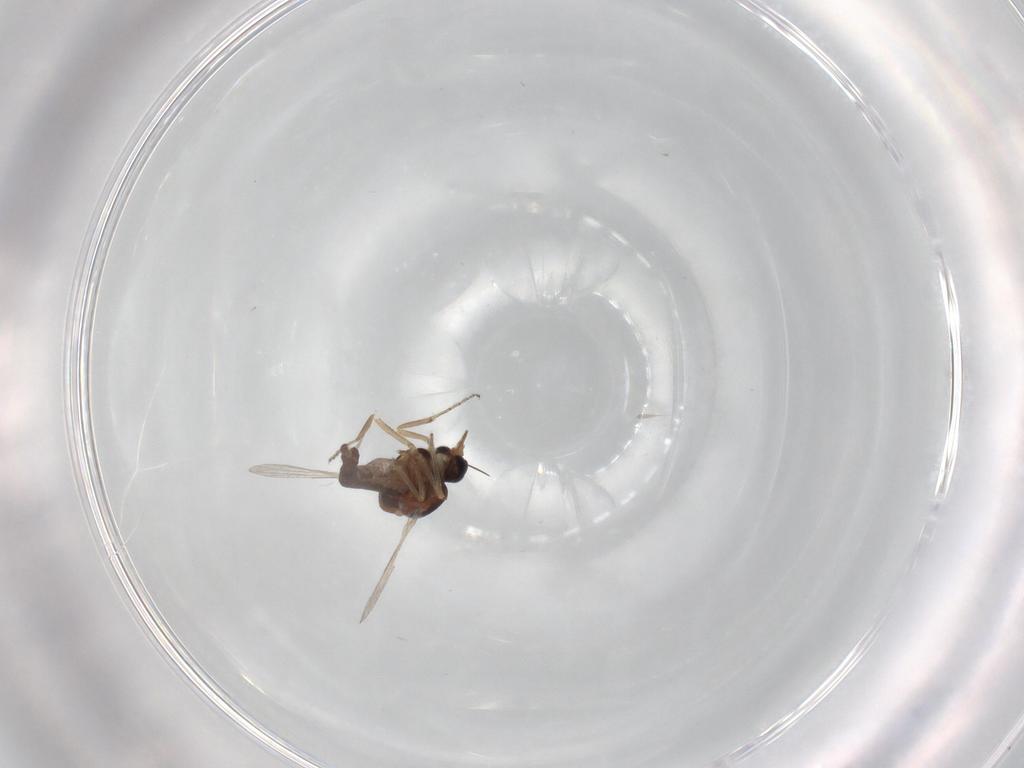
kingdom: Animalia
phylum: Arthropoda
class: Insecta
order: Diptera
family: Ceratopogonidae
